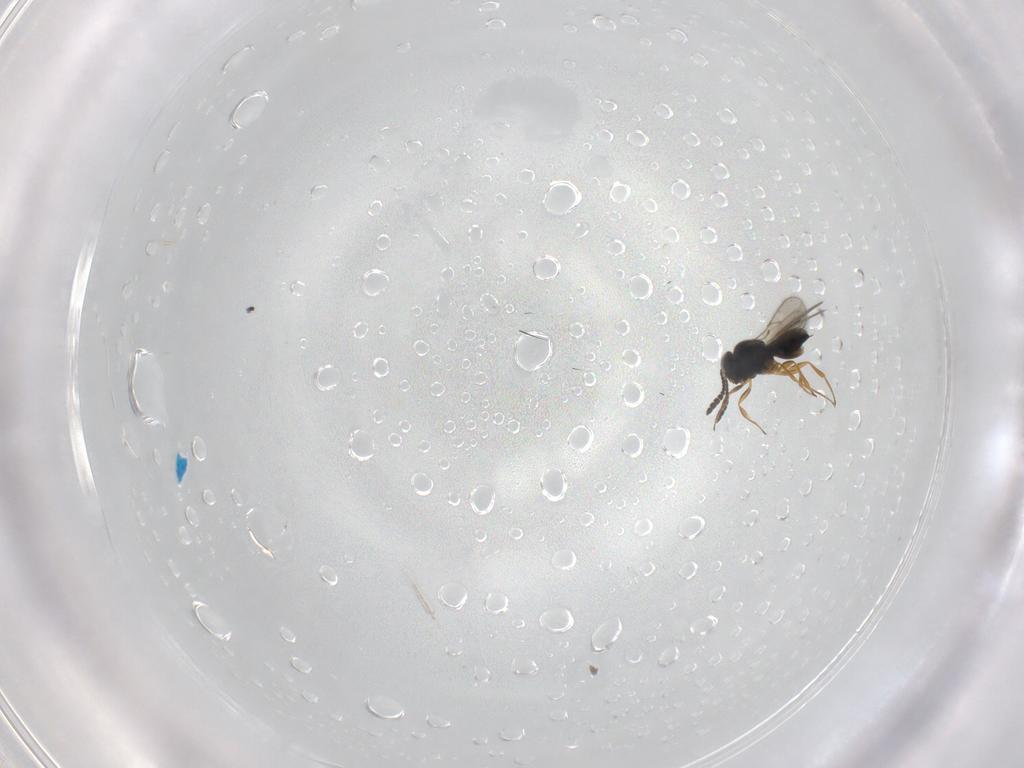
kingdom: Animalia
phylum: Arthropoda
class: Insecta
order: Hymenoptera
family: Scelionidae
